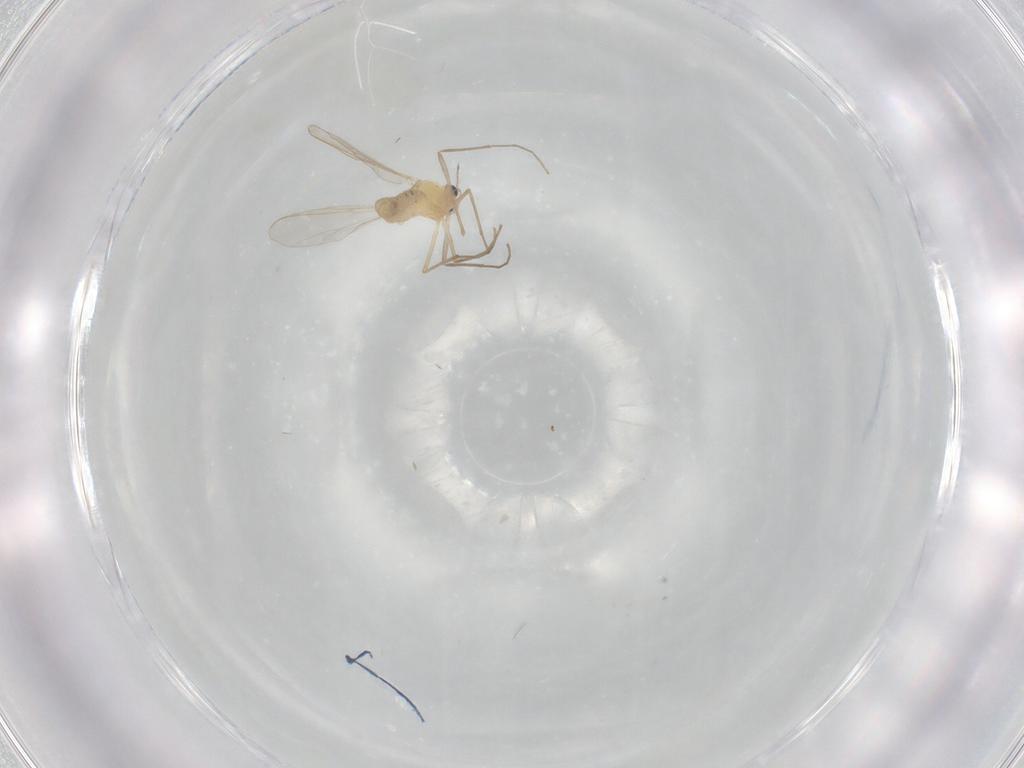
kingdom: Animalia
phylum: Arthropoda
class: Insecta
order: Diptera
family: Chironomidae
